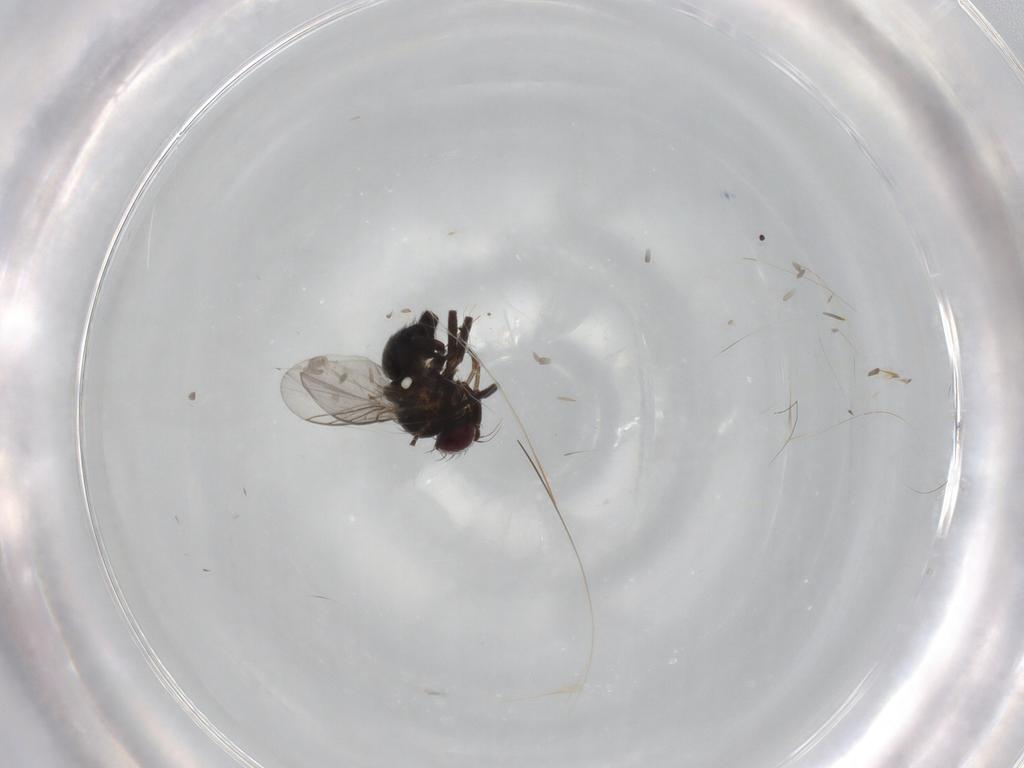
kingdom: Animalia
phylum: Arthropoda
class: Insecta
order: Diptera
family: Agromyzidae
